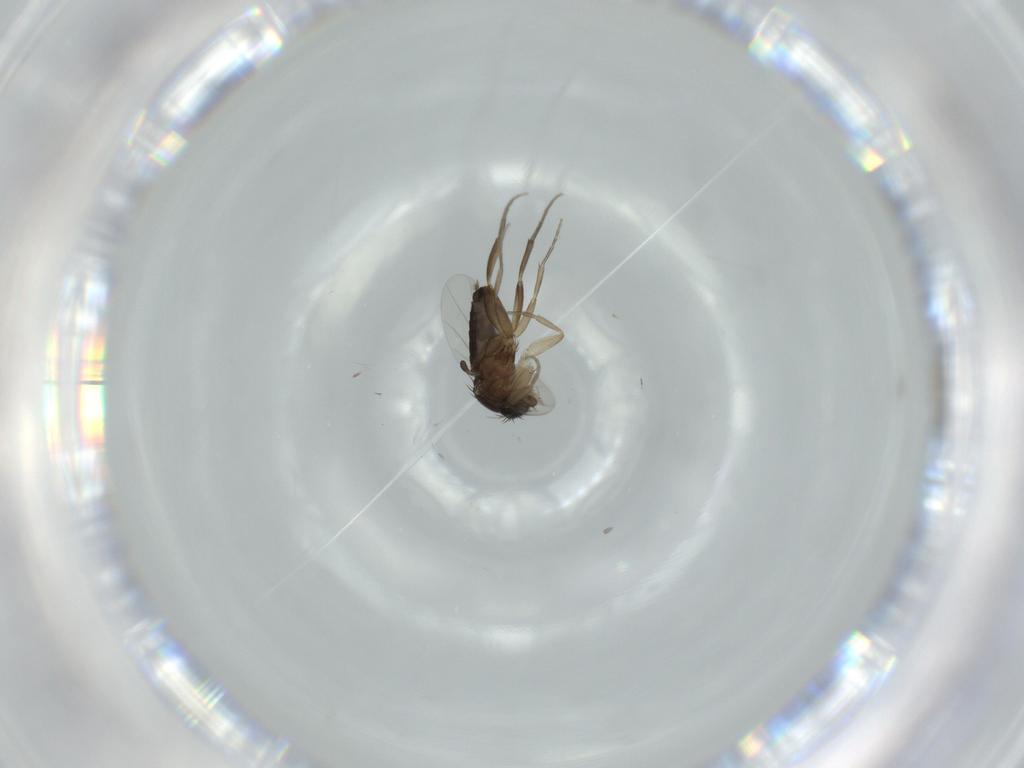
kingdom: Animalia
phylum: Arthropoda
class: Insecta
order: Diptera
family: Phoridae
